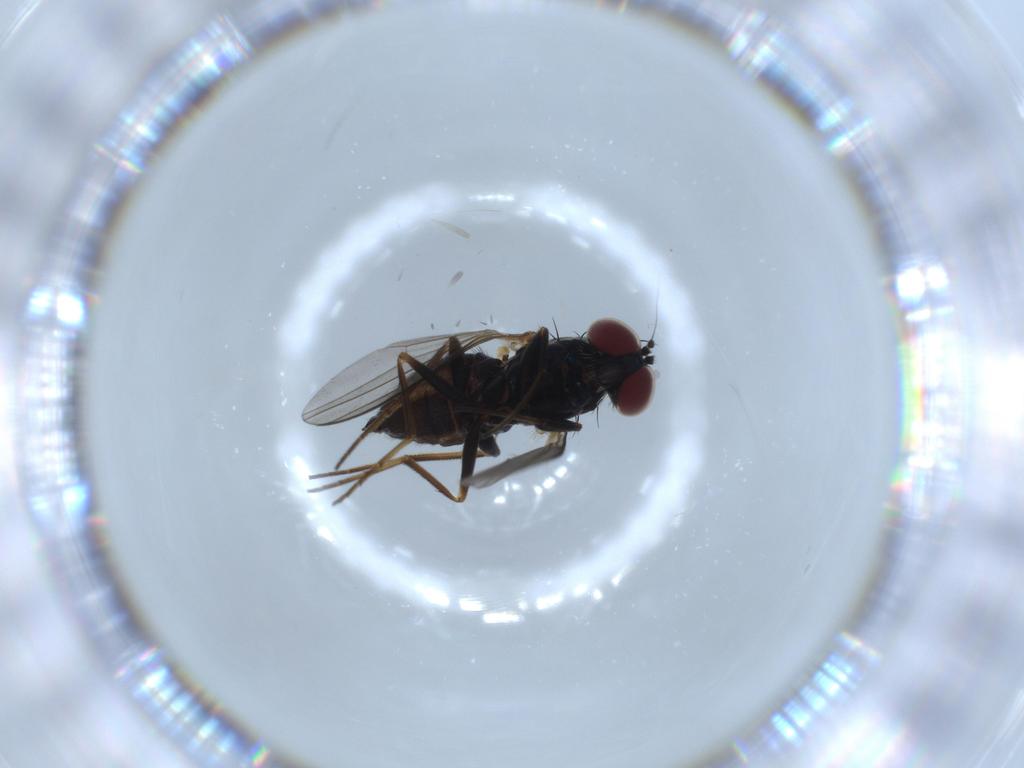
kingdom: Animalia
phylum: Arthropoda
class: Insecta
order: Diptera
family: Dolichopodidae
